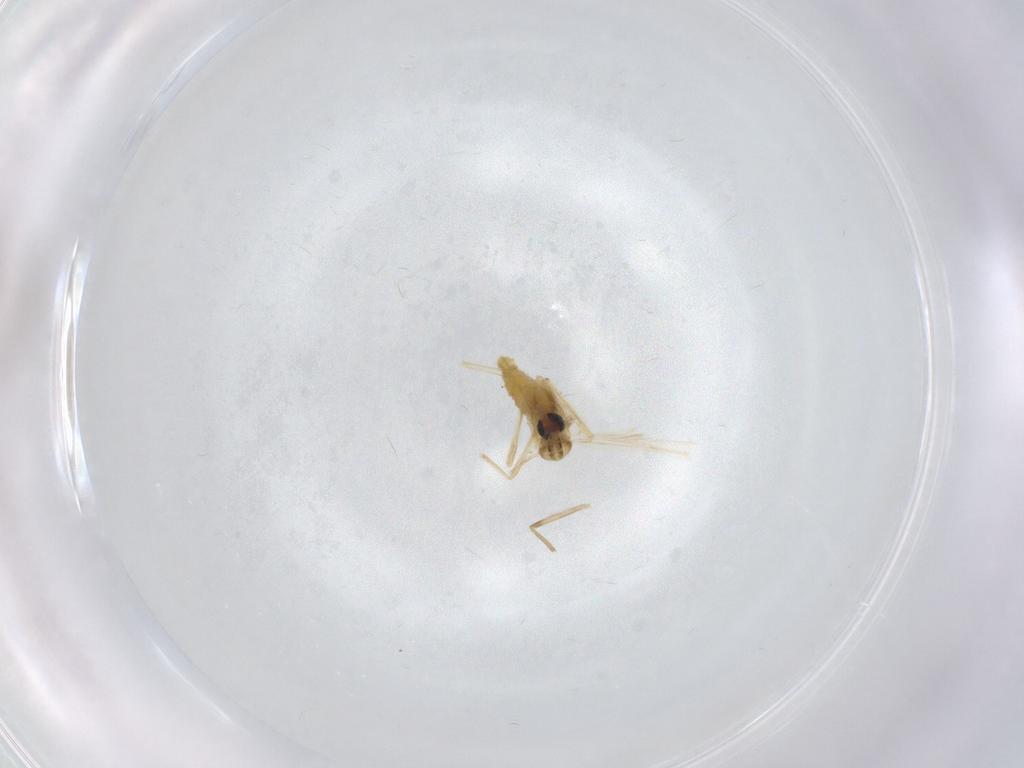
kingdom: Animalia
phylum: Arthropoda
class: Insecta
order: Diptera
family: Chaoboridae
